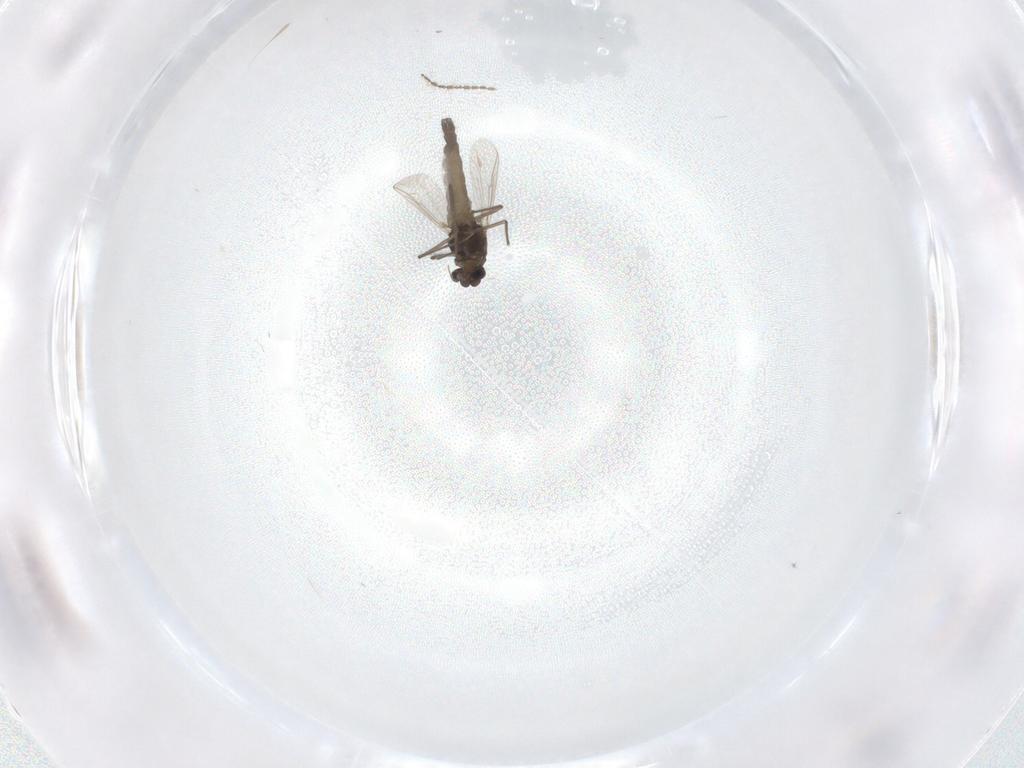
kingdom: Animalia
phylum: Arthropoda
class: Insecta
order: Diptera
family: Chironomidae
